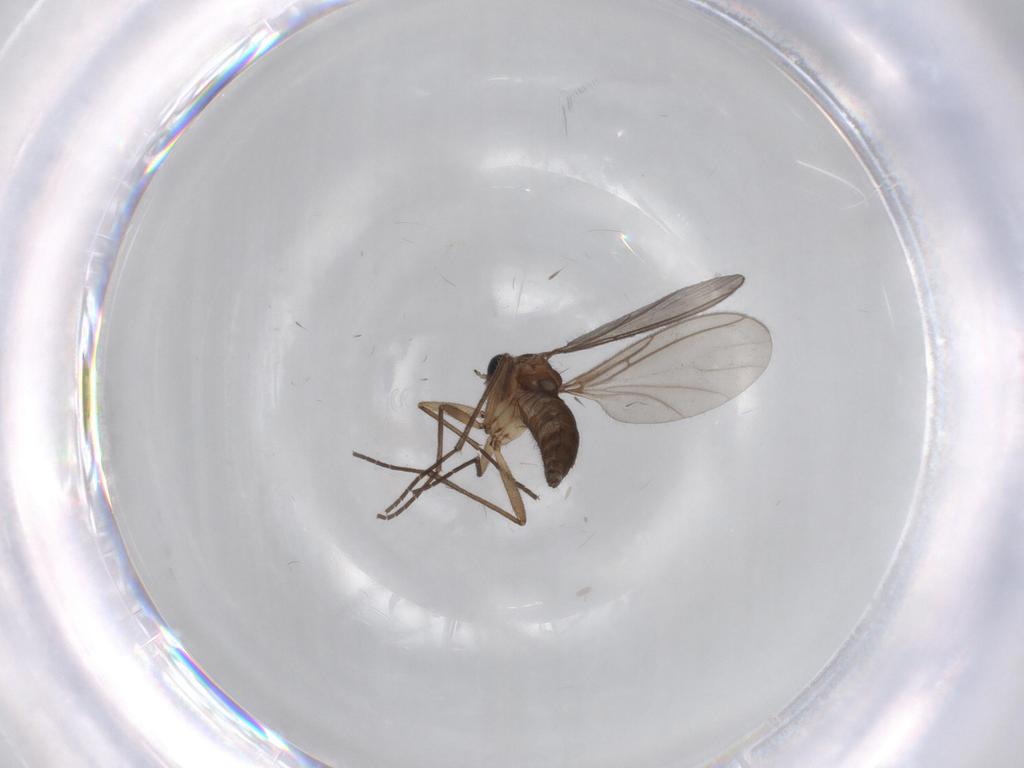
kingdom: Animalia
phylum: Arthropoda
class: Insecta
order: Diptera
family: Sciaridae
